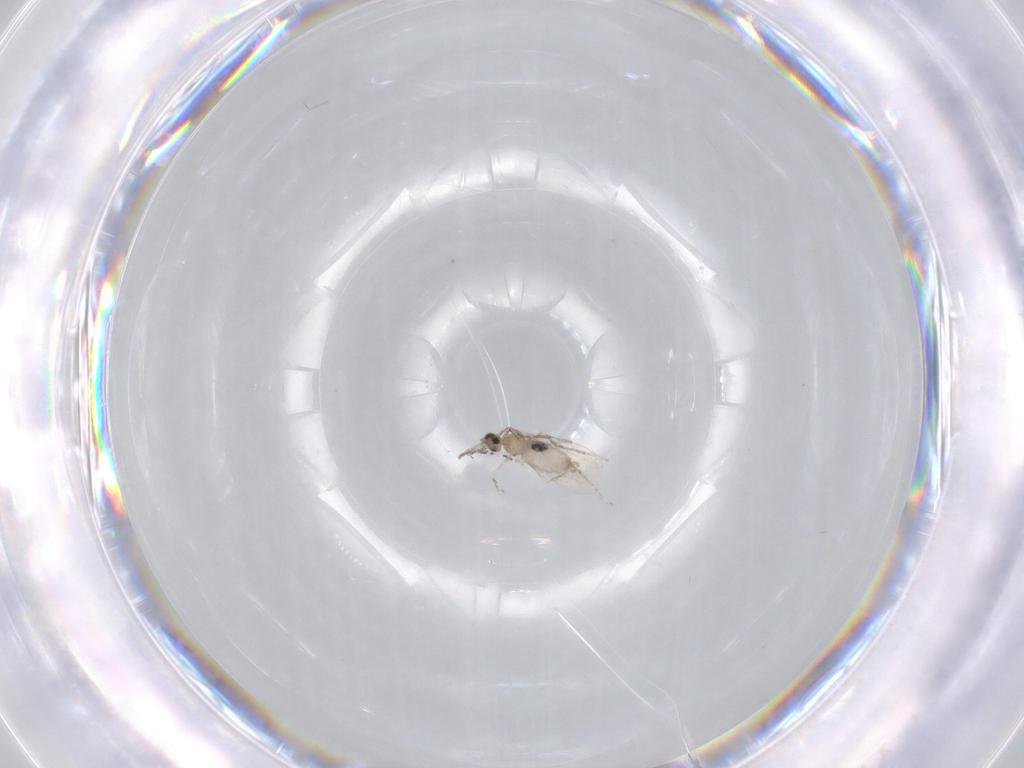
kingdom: Animalia
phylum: Arthropoda
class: Insecta
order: Diptera
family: Cecidomyiidae
